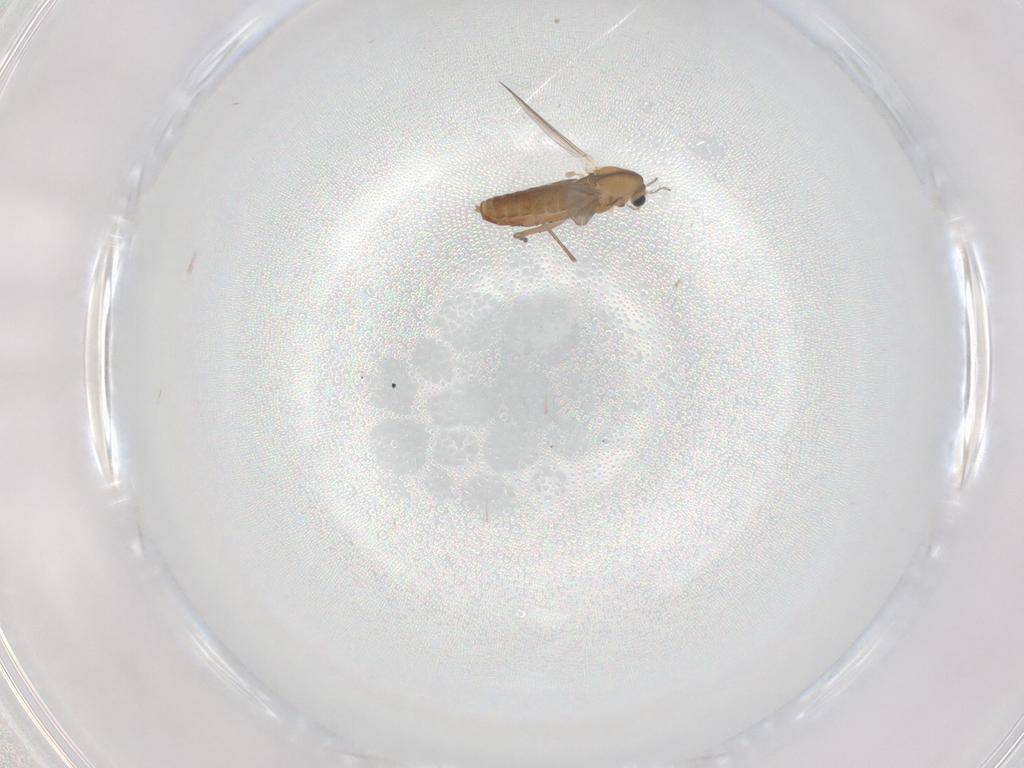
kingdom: Animalia
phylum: Arthropoda
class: Insecta
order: Diptera
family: Chironomidae
